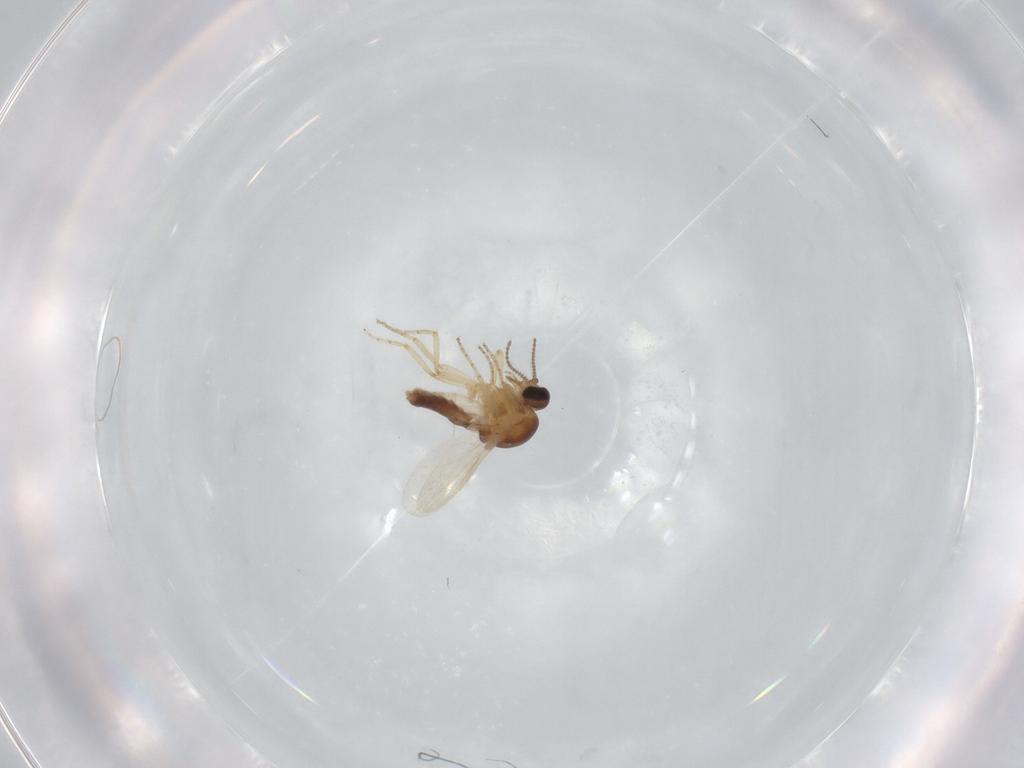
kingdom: Animalia
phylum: Arthropoda
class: Insecta
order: Diptera
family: Ceratopogonidae
